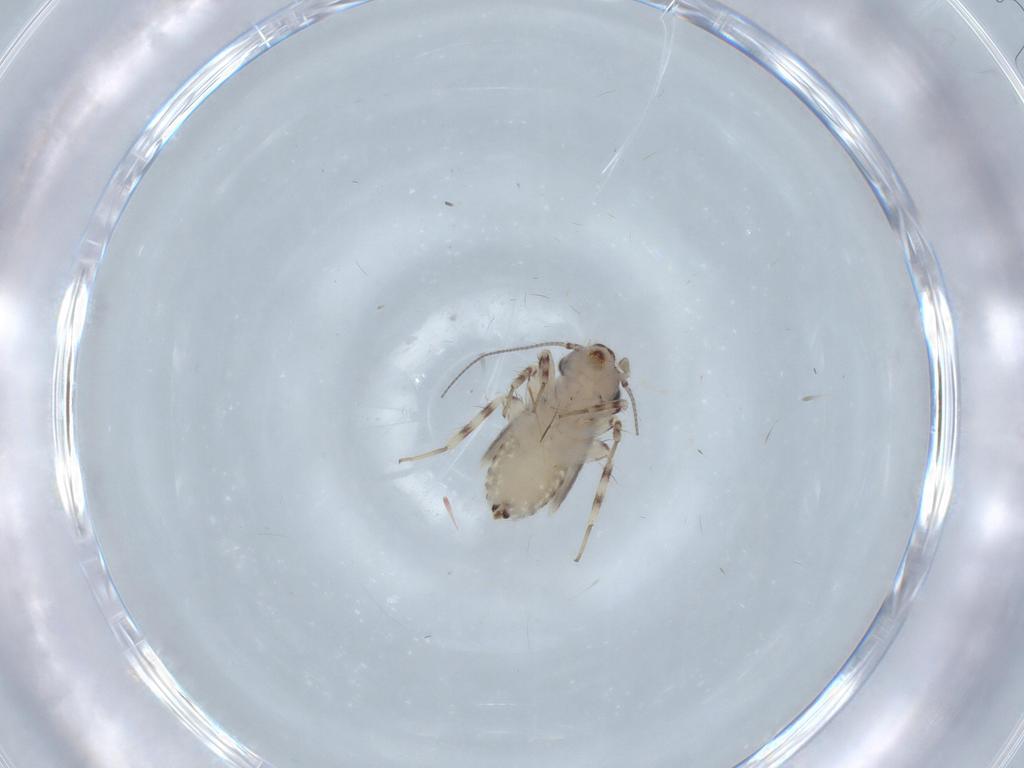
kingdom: Animalia
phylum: Arthropoda
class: Insecta
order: Psocodea
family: Lepidopsocidae
